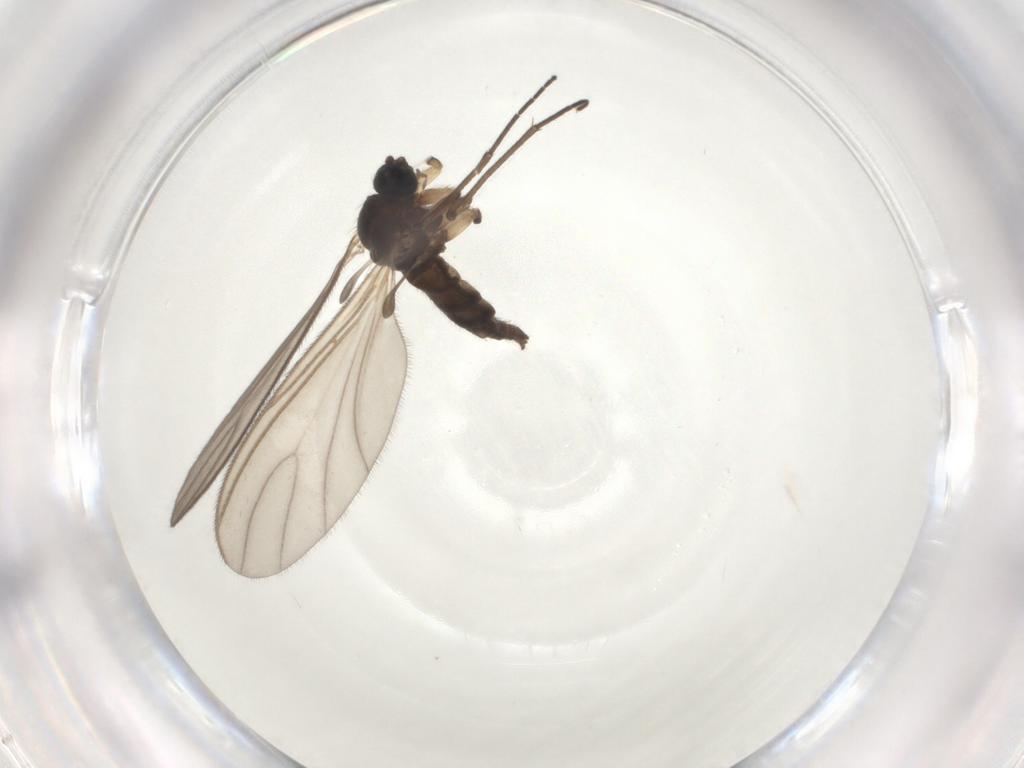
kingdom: Animalia
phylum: Arthropoda
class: Insecta
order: Diptera
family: Sciaridae
